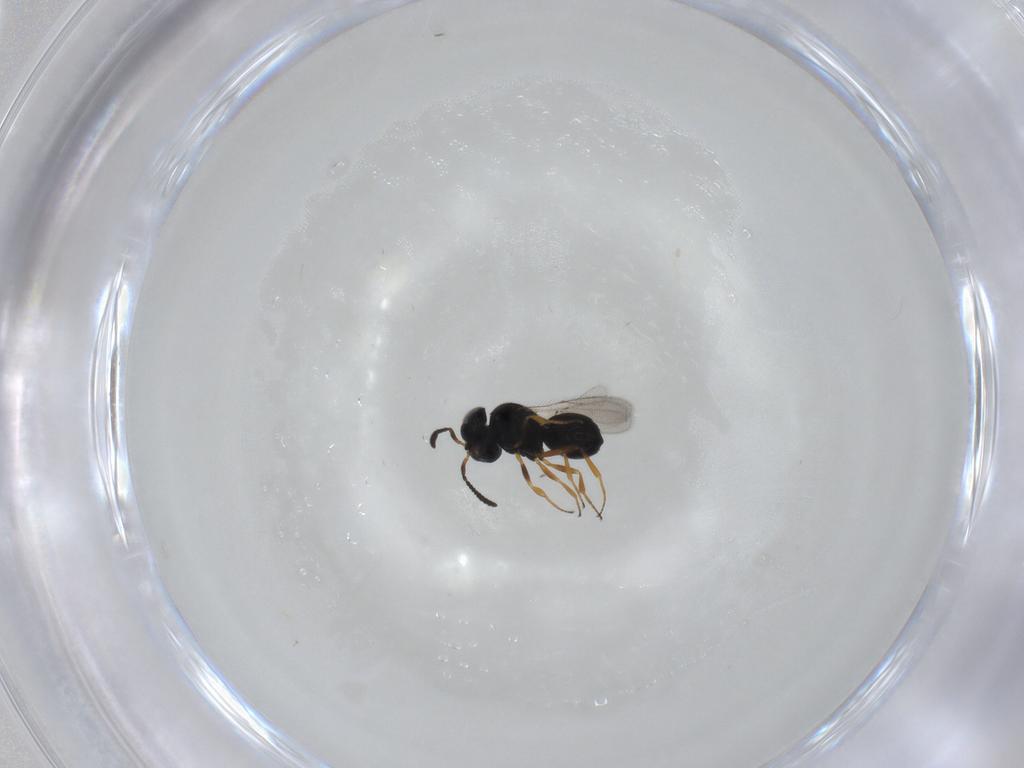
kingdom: Animalia
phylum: Arthropoda
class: Insecta
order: Hymenoptera
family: Scelionidae
